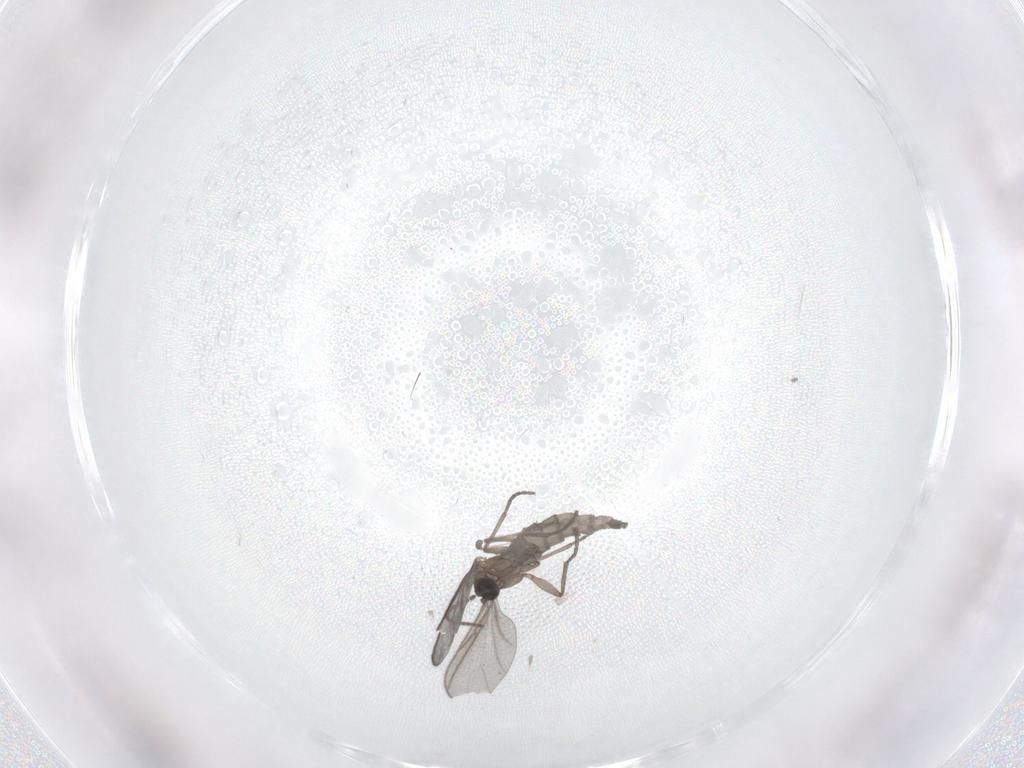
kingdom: Animalia
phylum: Arthropoda
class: Insecta
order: Diptera
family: Sciaridae
